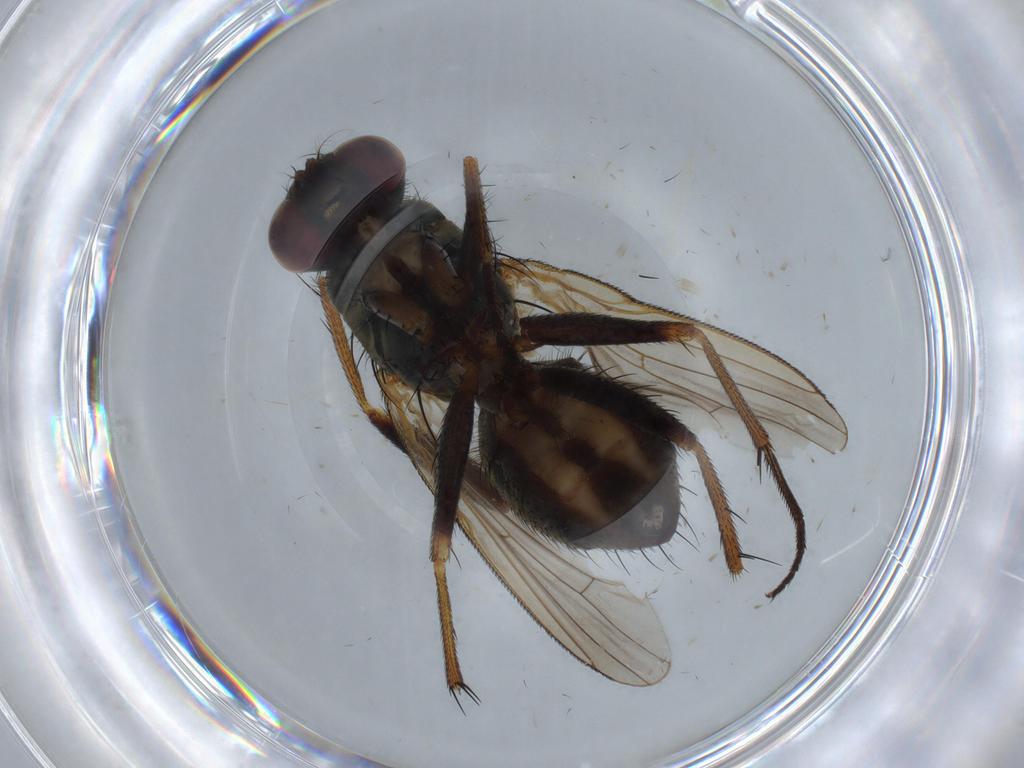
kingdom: Animalia
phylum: Arthropoda
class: Insecta
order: Diptera
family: Muscidae
